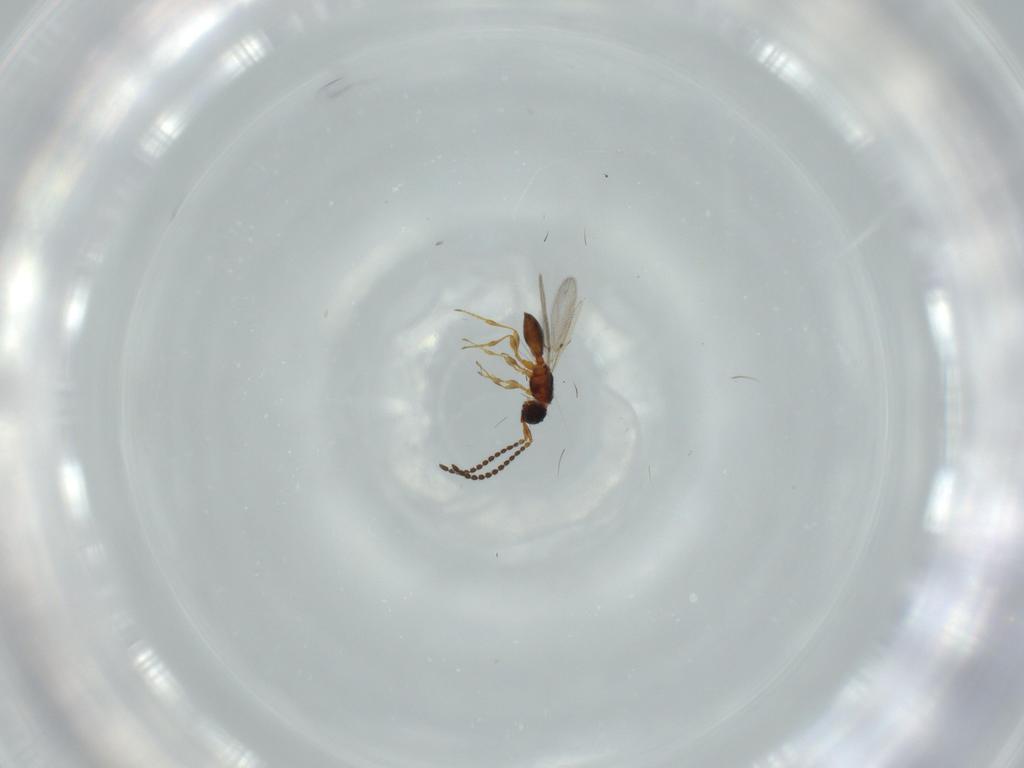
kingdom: Animalia
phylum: Arthropoda
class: Insecta
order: Hymenoptera
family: Diapriidae
